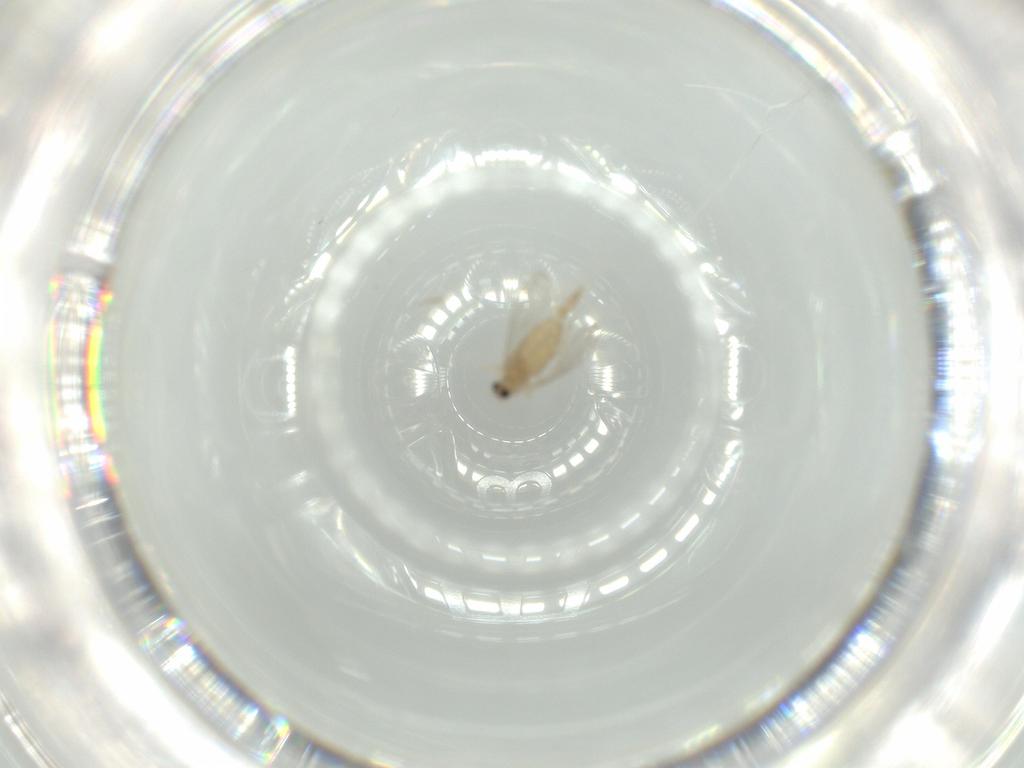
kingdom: Animalia
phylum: Arthropoda
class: Insecta
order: Diptera
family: Cecidomyiidae
